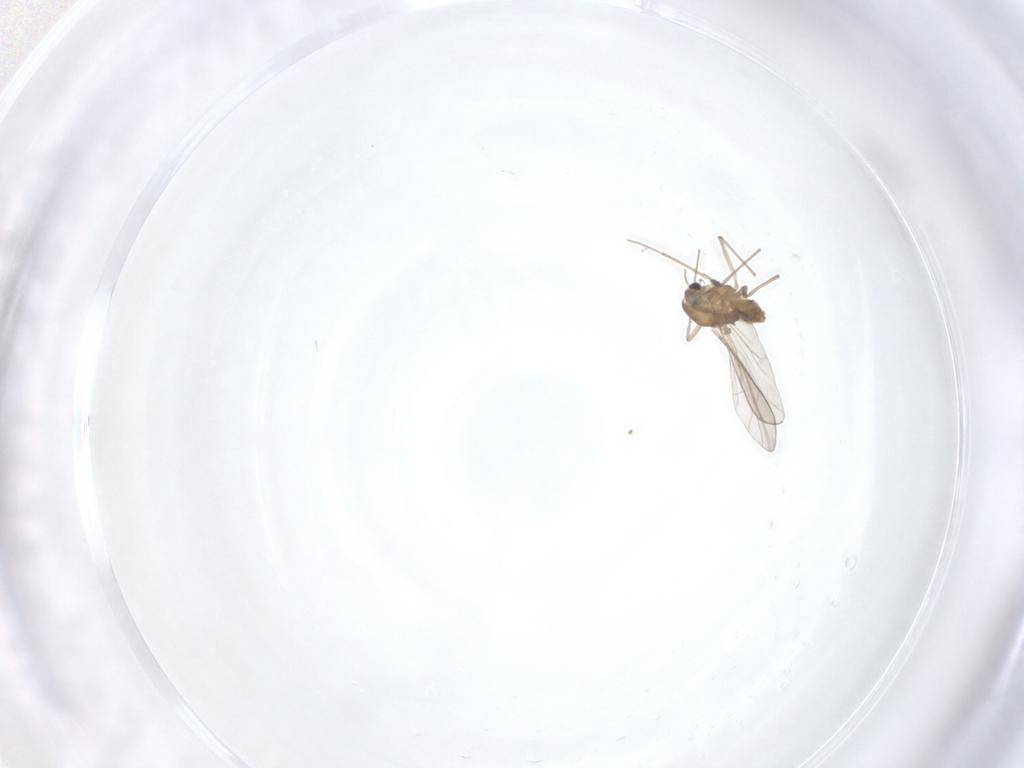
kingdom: Animalia
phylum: Arthropoda
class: Insecta
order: Diptera
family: Chironomidae
